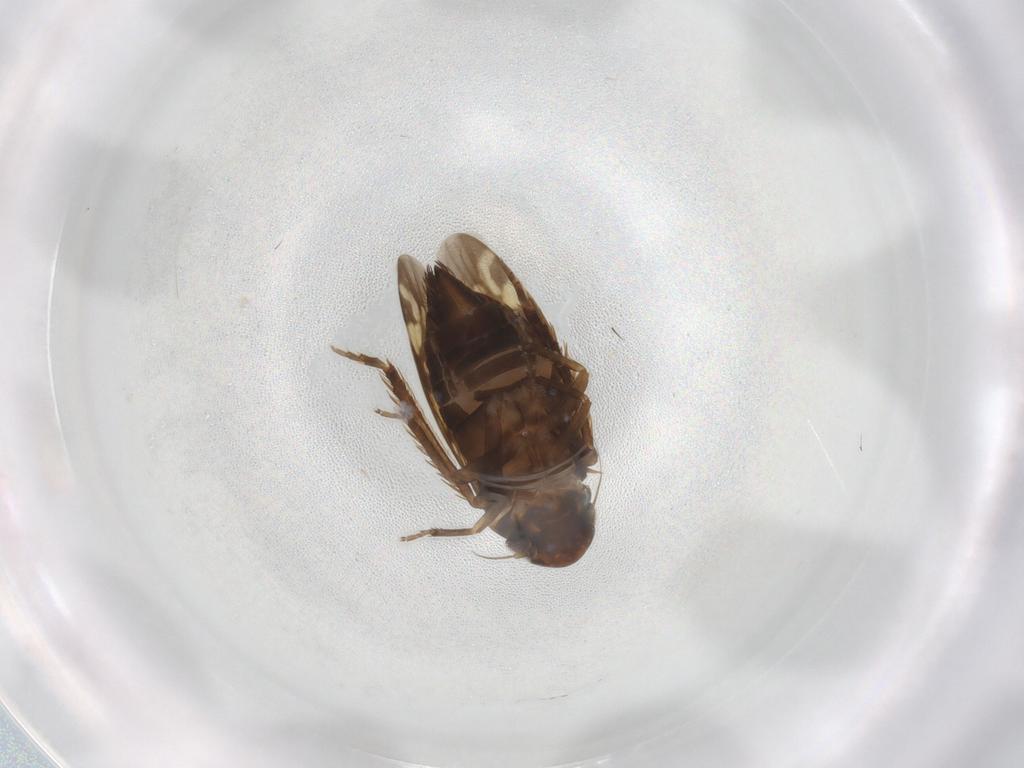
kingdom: Animalia
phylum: Arthropoda
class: Insecta
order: Hemiptera
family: Cicadellidae
